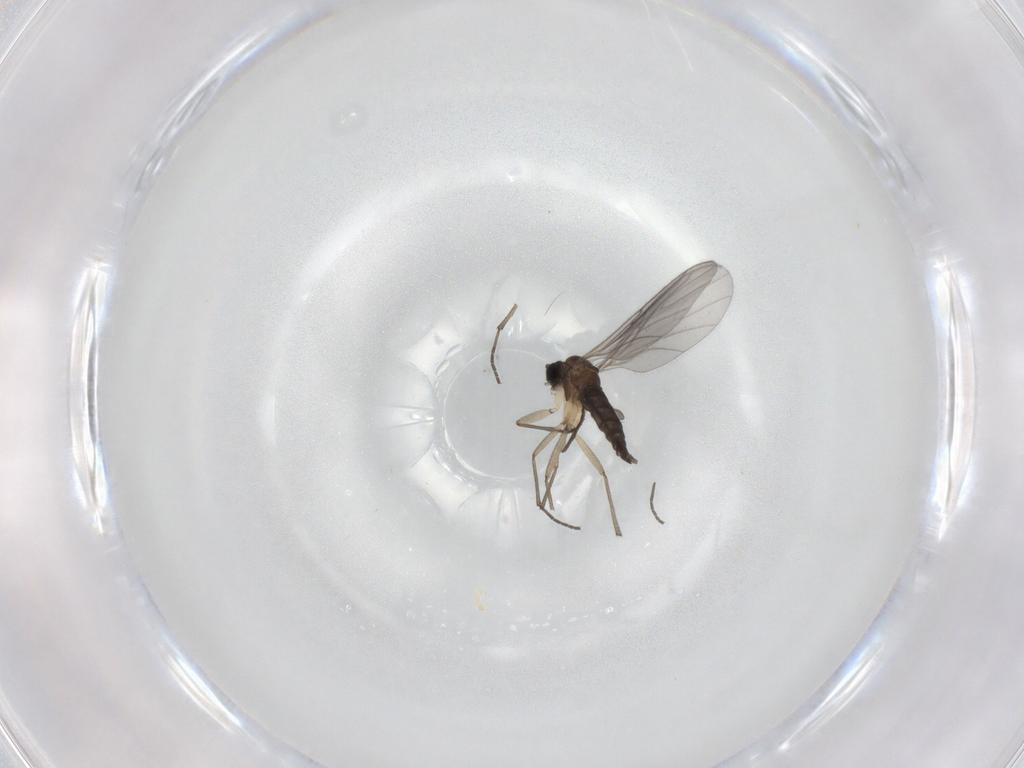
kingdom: Animalia
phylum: Arthropoda
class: Insecta
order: Diptera
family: Sciaridae
